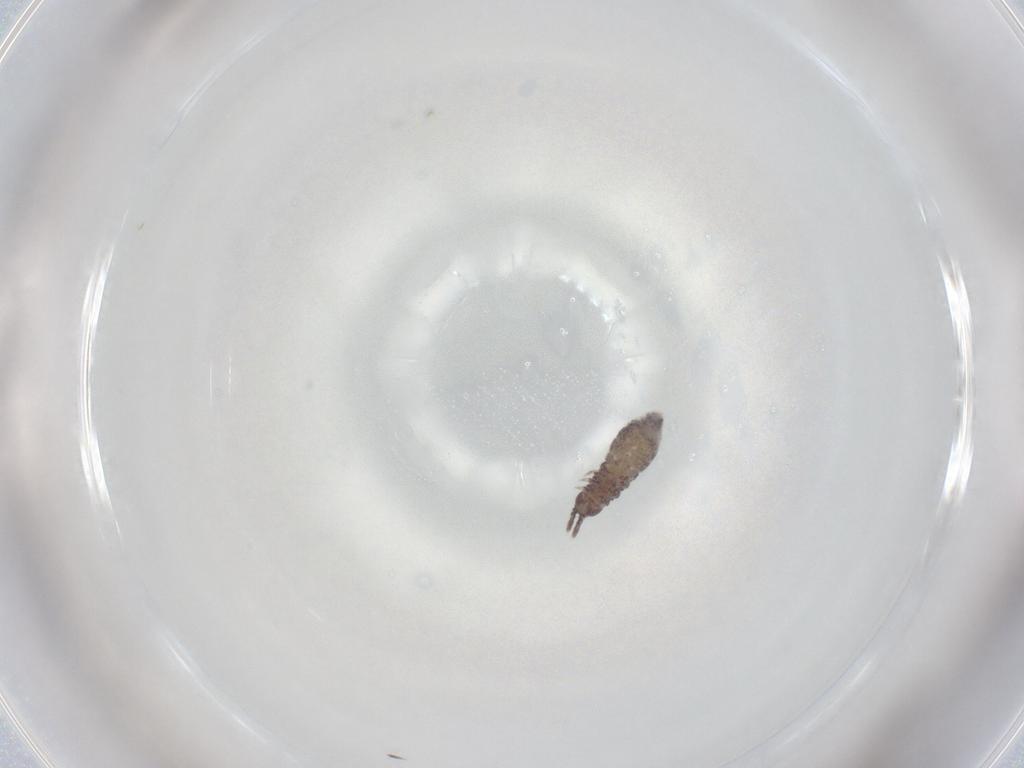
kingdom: Animalia
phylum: Arthropoda
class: Collembola
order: Poduromorpha
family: Hypogastruridae
